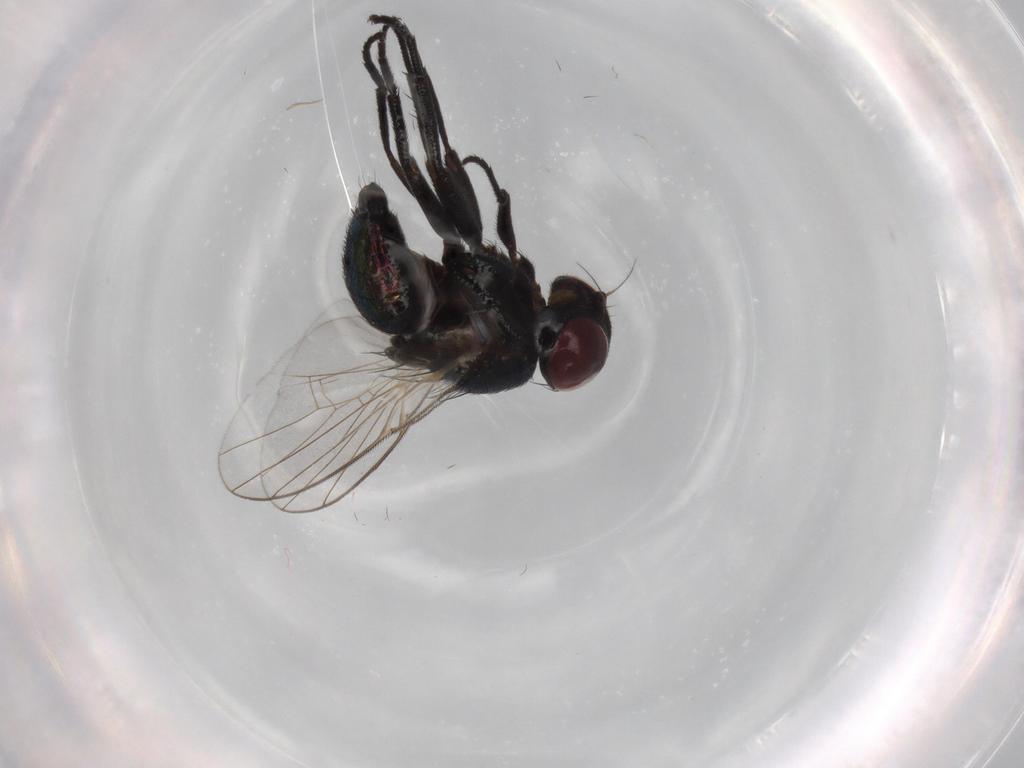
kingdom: Animalia
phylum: Arthropoda
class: Insecta
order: Diptera
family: Agromyzidae
